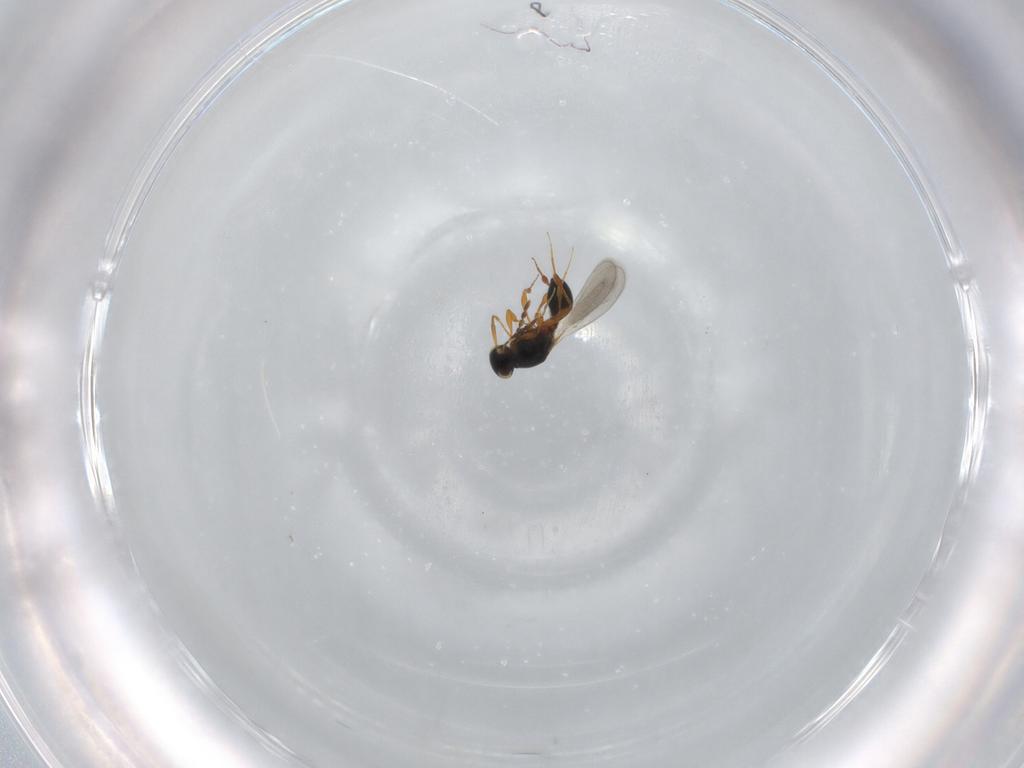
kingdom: Animalia
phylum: Arthropoda
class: Insecta
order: Hymenoptera
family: Platygastridae
